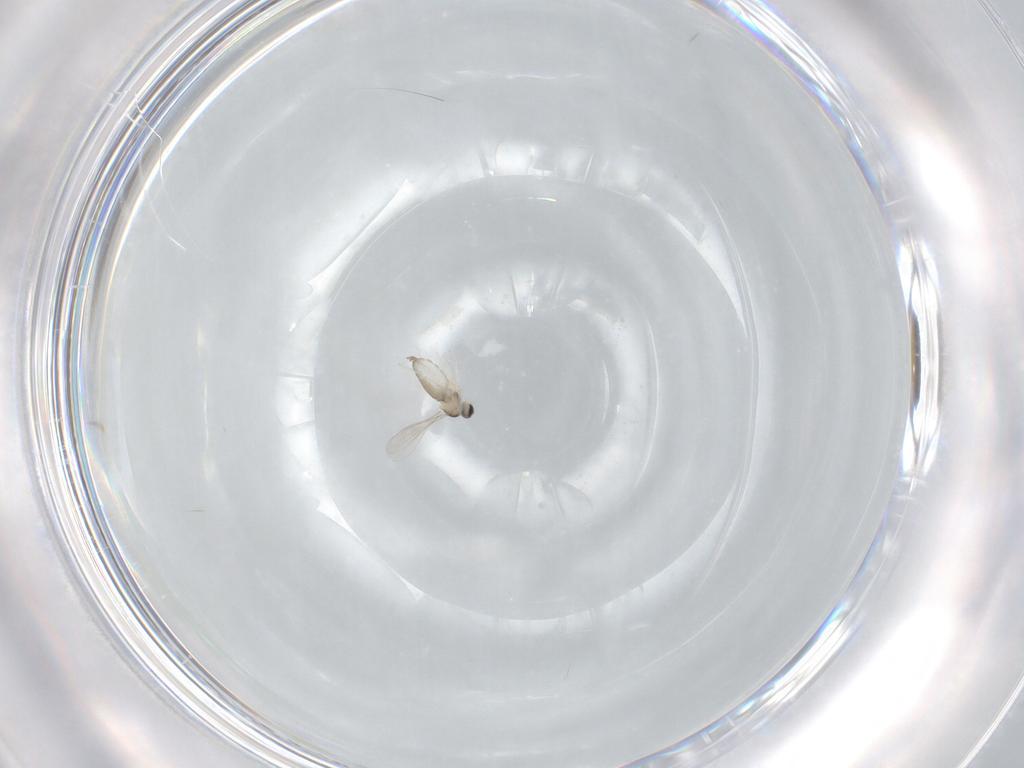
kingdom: Animalia
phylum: Arthropoda
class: Insecta
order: Diptera
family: Sciaridae
